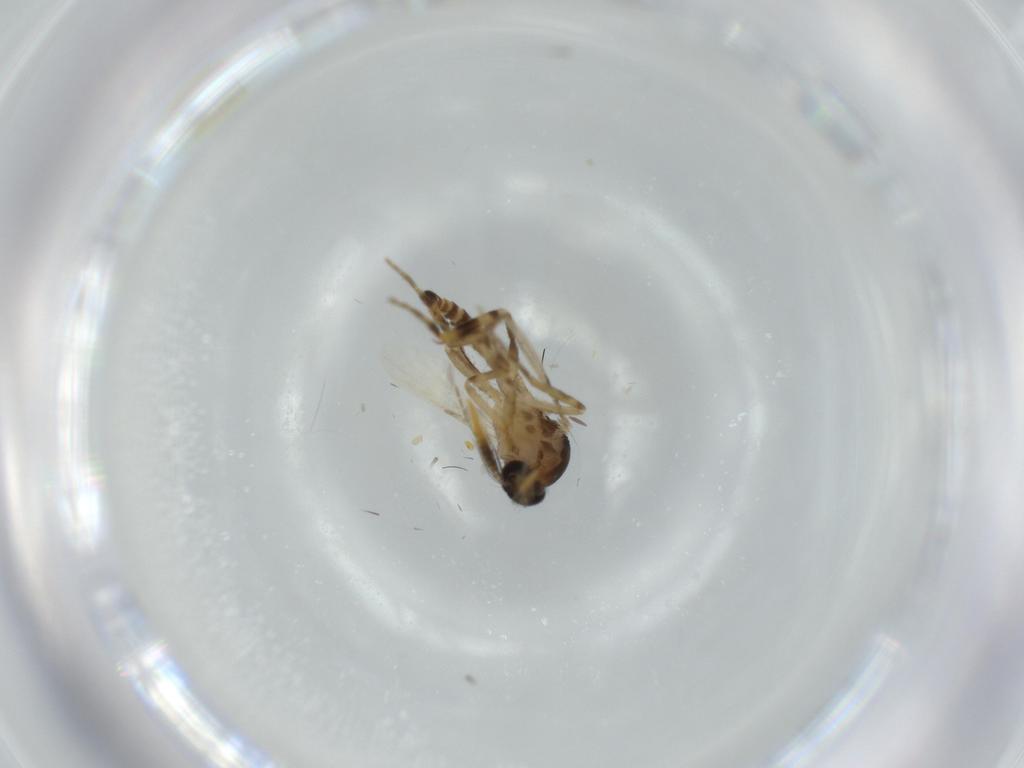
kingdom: Animalia
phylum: Arthropoda
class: Insecta
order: Diptera
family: Ceratopogonidae
